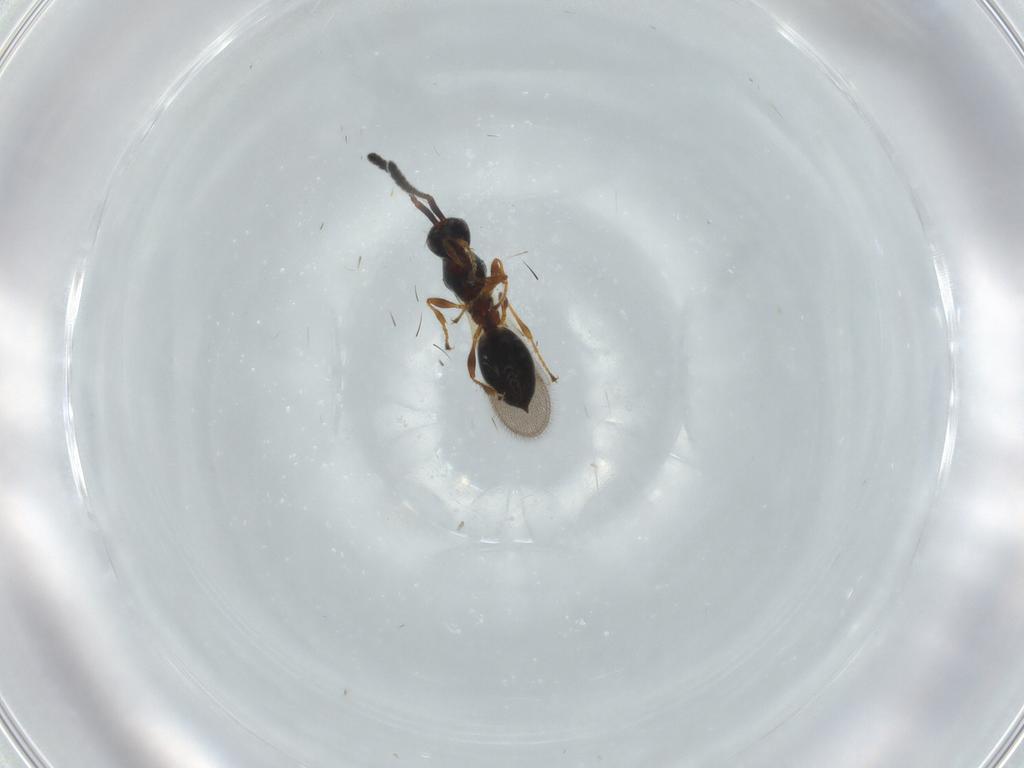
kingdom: Animalia
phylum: Arthropoda
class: Insecta
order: Hymenoptera
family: Diapriidae
